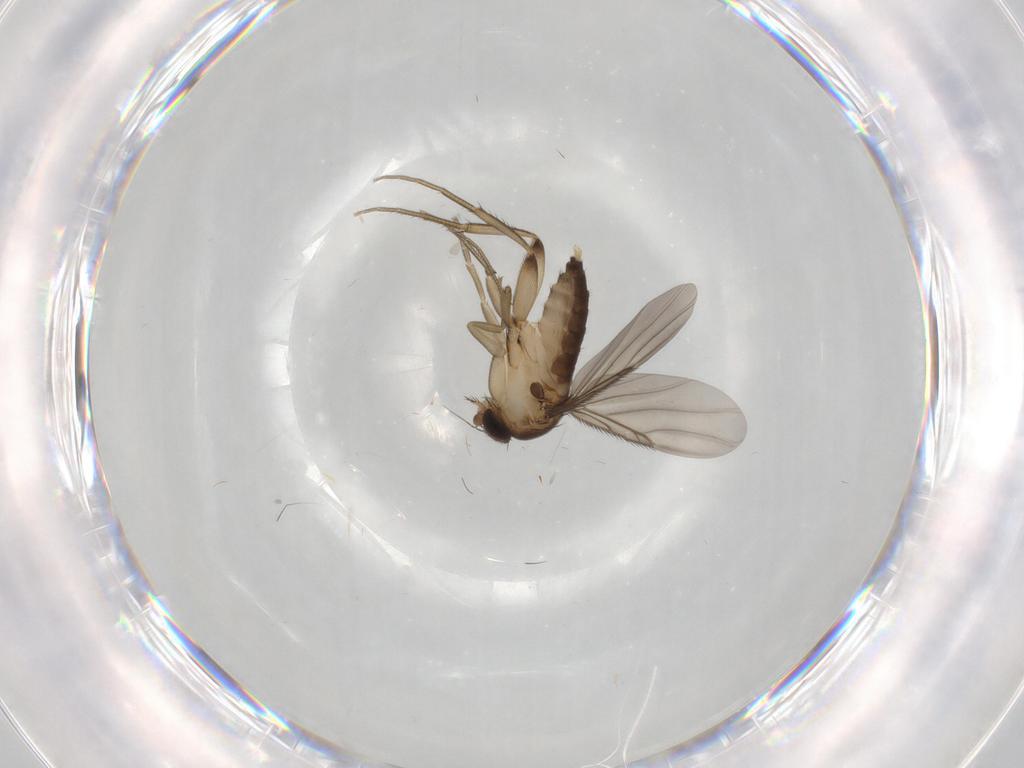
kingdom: Animalia
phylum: Arthropoda
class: Insecta
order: Diptera
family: Phoridae
